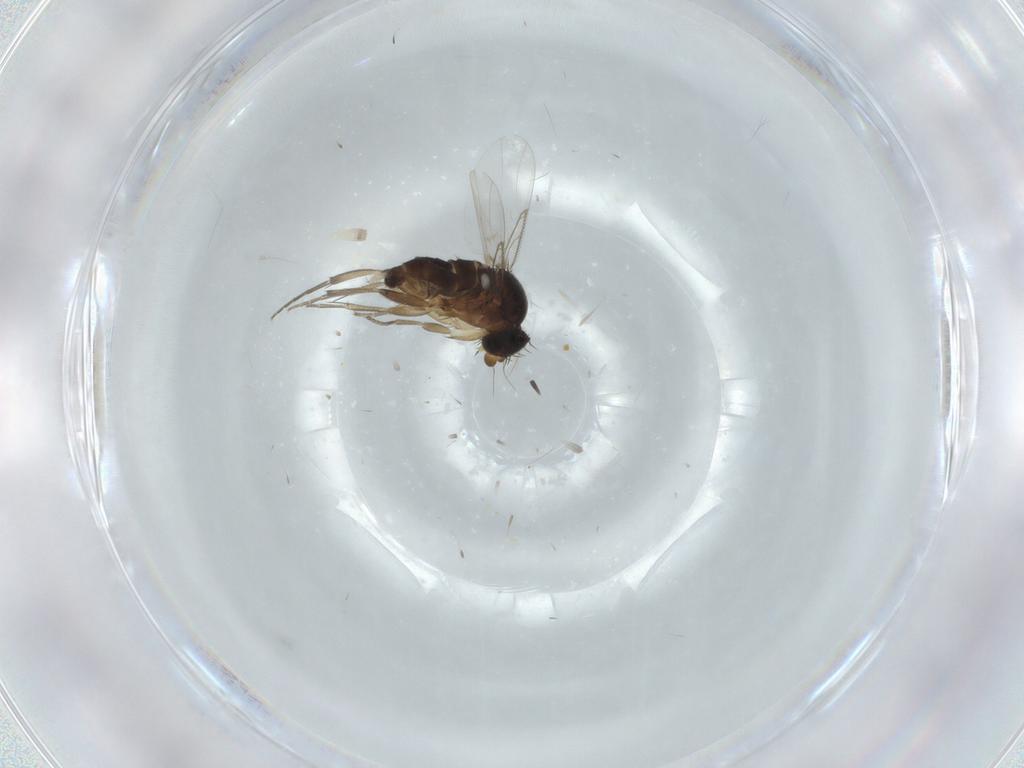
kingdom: Animalia
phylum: Arthropoda
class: Insecta
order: Diptera
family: Phoridae
